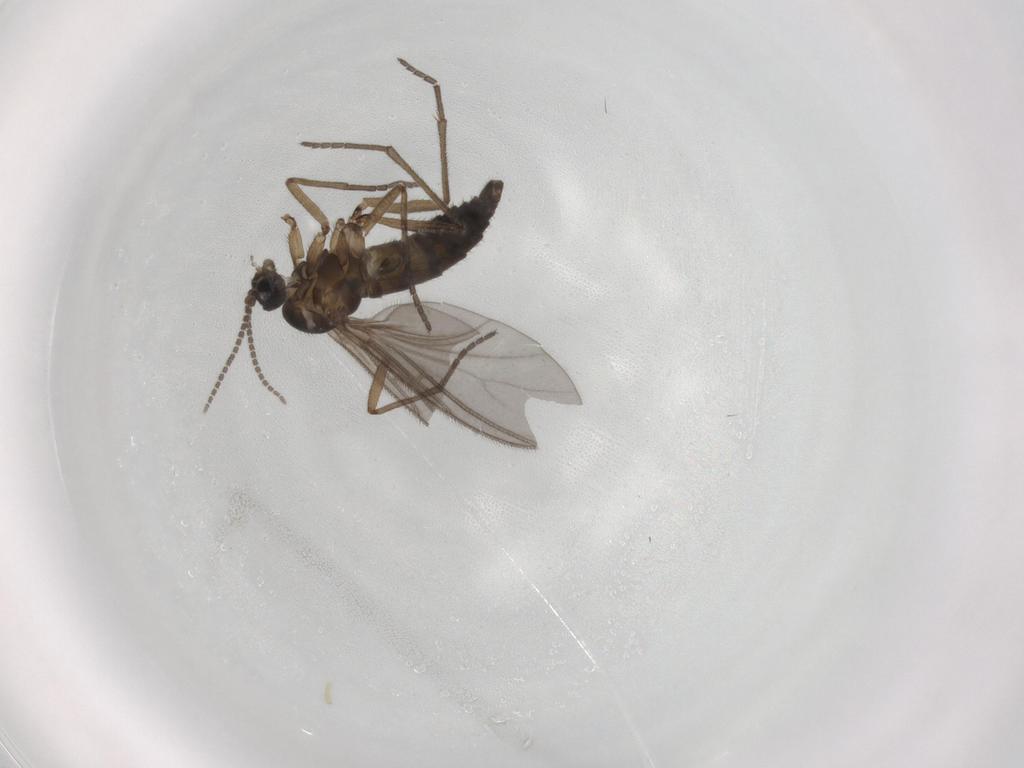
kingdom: Animalia
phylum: Arthropoda
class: Insecta
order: Diptera
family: Sciaridae
